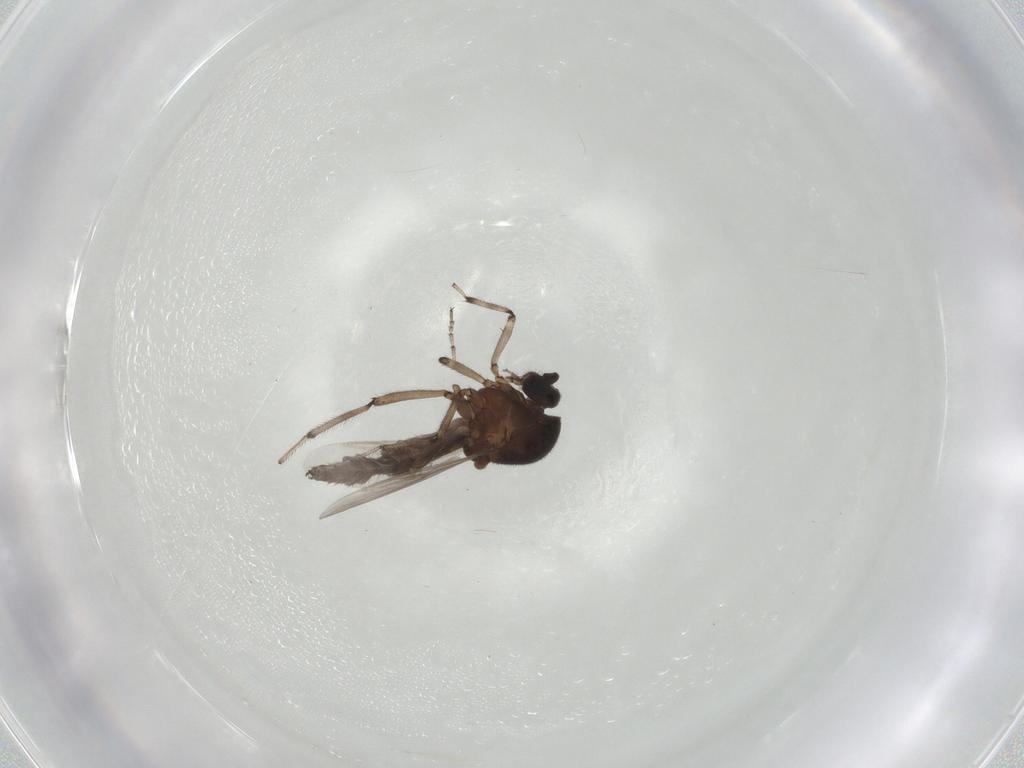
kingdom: Animalia
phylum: Arthropoda
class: Insecta
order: Diptera
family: Ceratopogonidae
